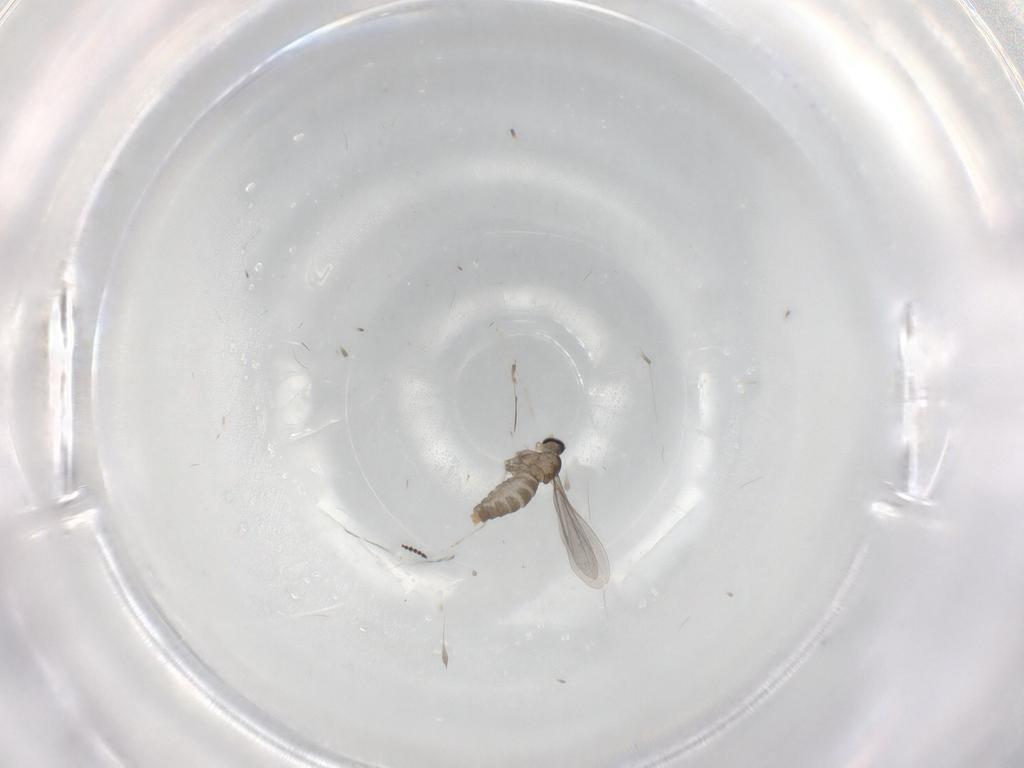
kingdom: Animalia
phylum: Arthropoda
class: Insecta
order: Diptera
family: Cecidomyiidae
